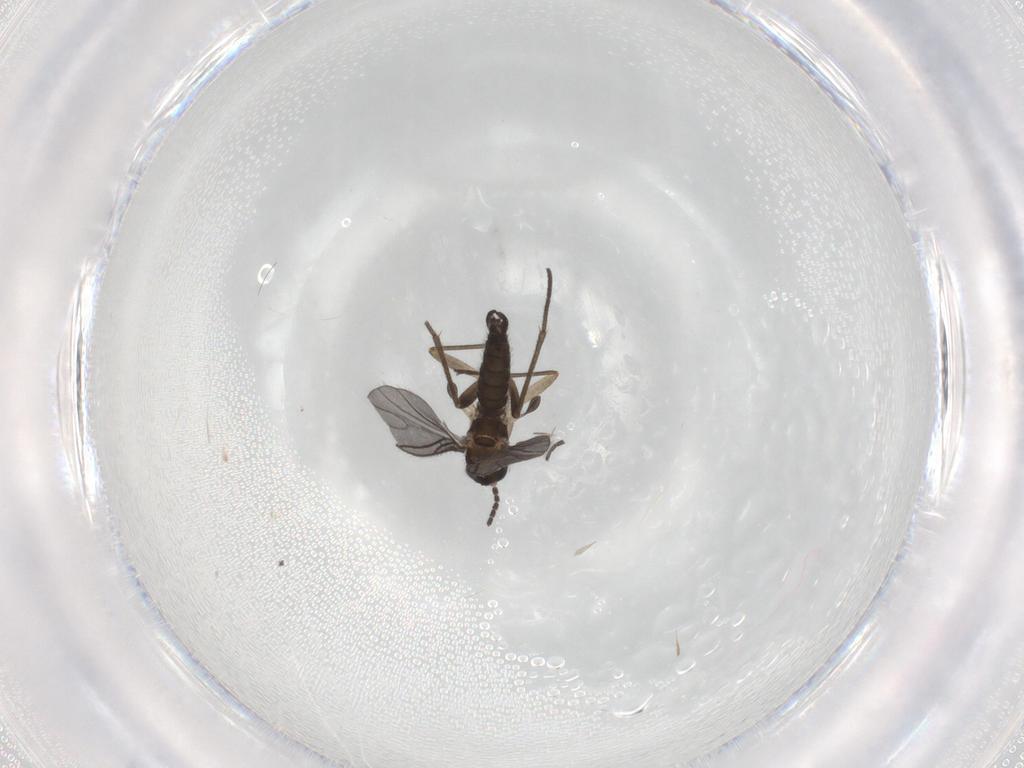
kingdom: Animalia
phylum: Arthropoda
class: Insecta
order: Diptera
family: Sciaridae
